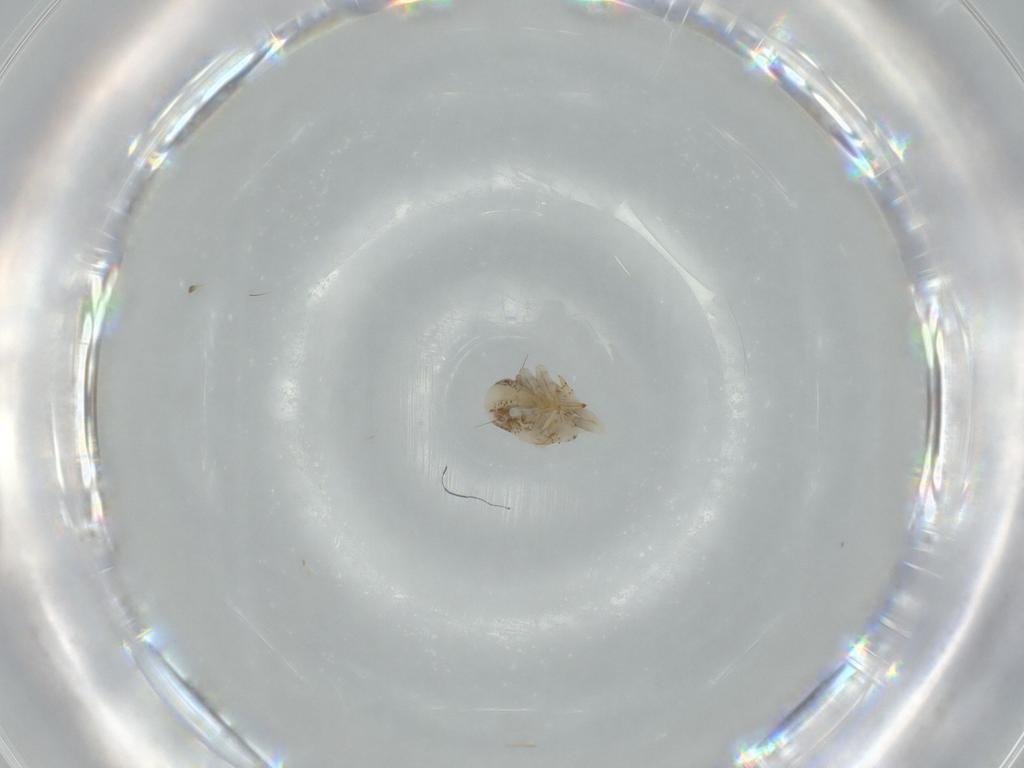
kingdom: Animalia
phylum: Arthropoda
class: Insecta
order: Hemiptera
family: Acanaloniidae
